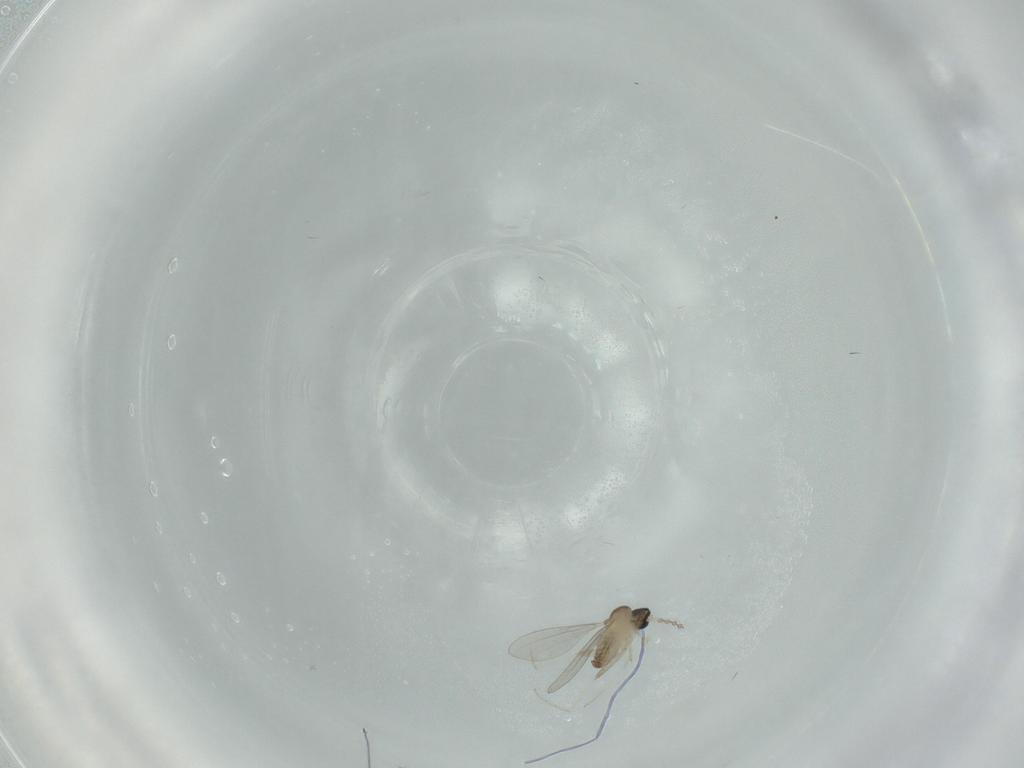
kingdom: Animalia
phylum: Arthropoda
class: Insecta
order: Diptera
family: Cecidomyiidae
